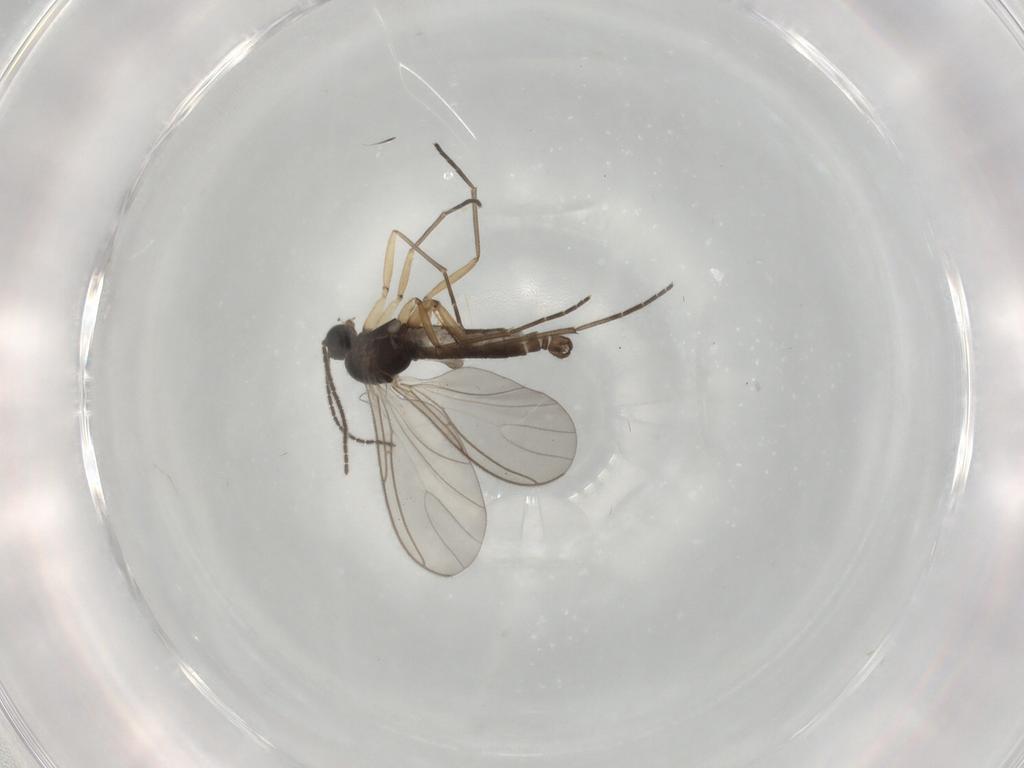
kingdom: Animalia
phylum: Arthropoda
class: Insecta
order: Diptera
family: Sciaridae
